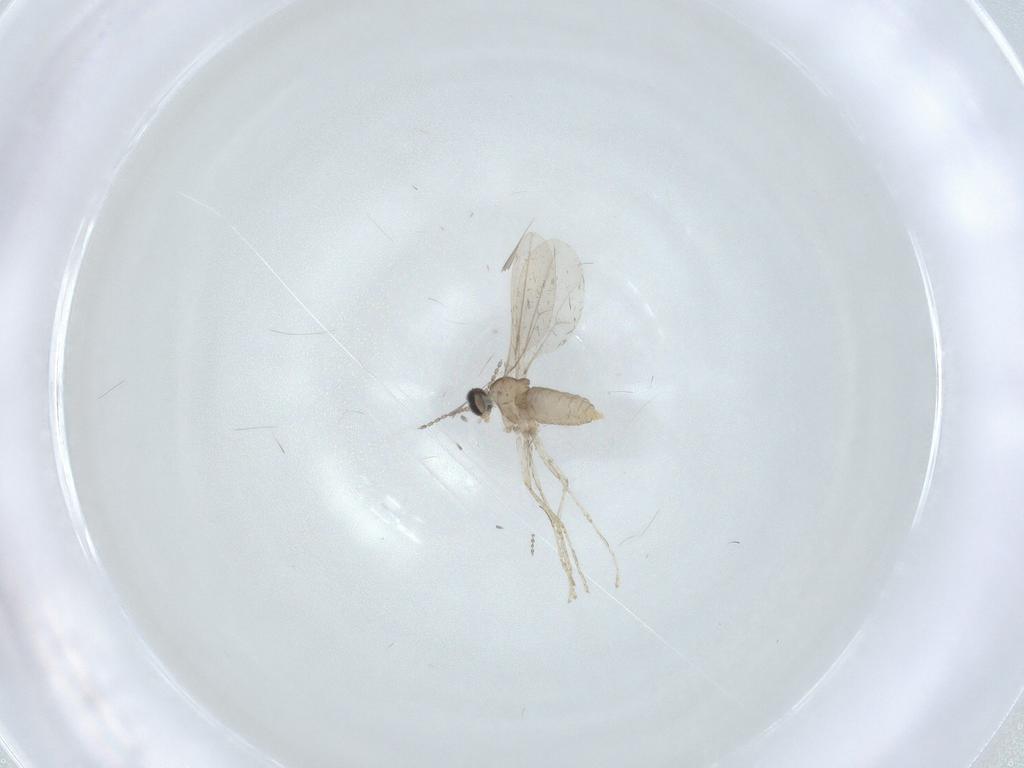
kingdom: Animalia
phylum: Arthropoda
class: Insecta
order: Diptera
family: Cecidomyiidae
